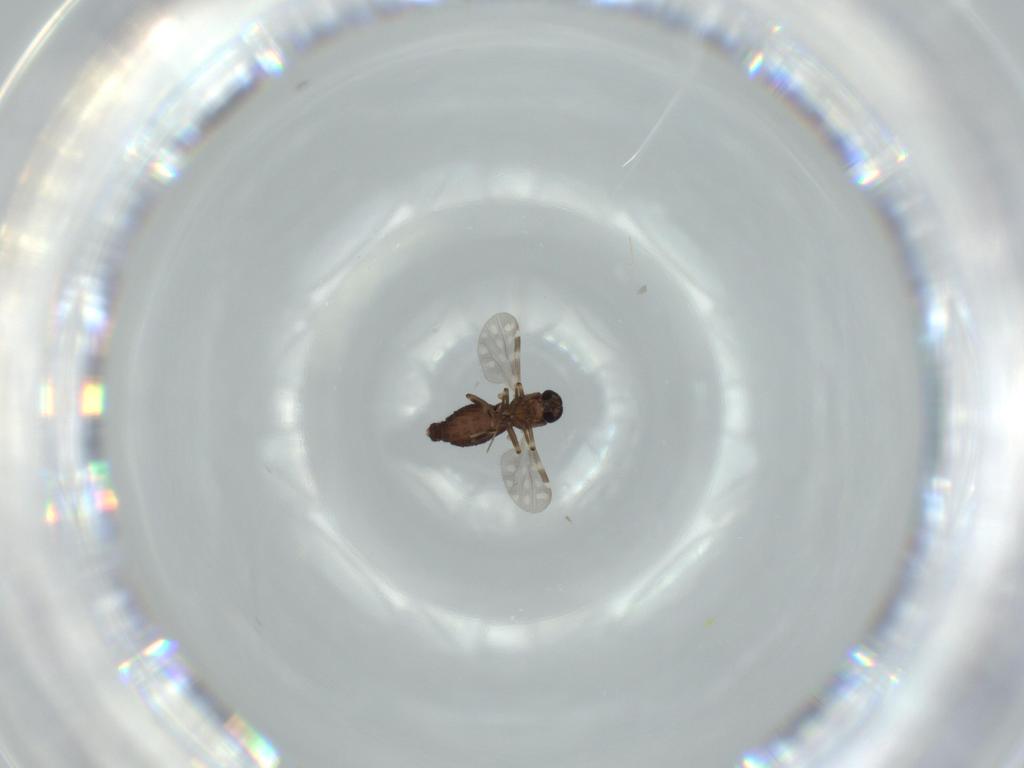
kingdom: Animalia
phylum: Arthropoda
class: Insecta
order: Diptera
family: Ceratopogonidae
